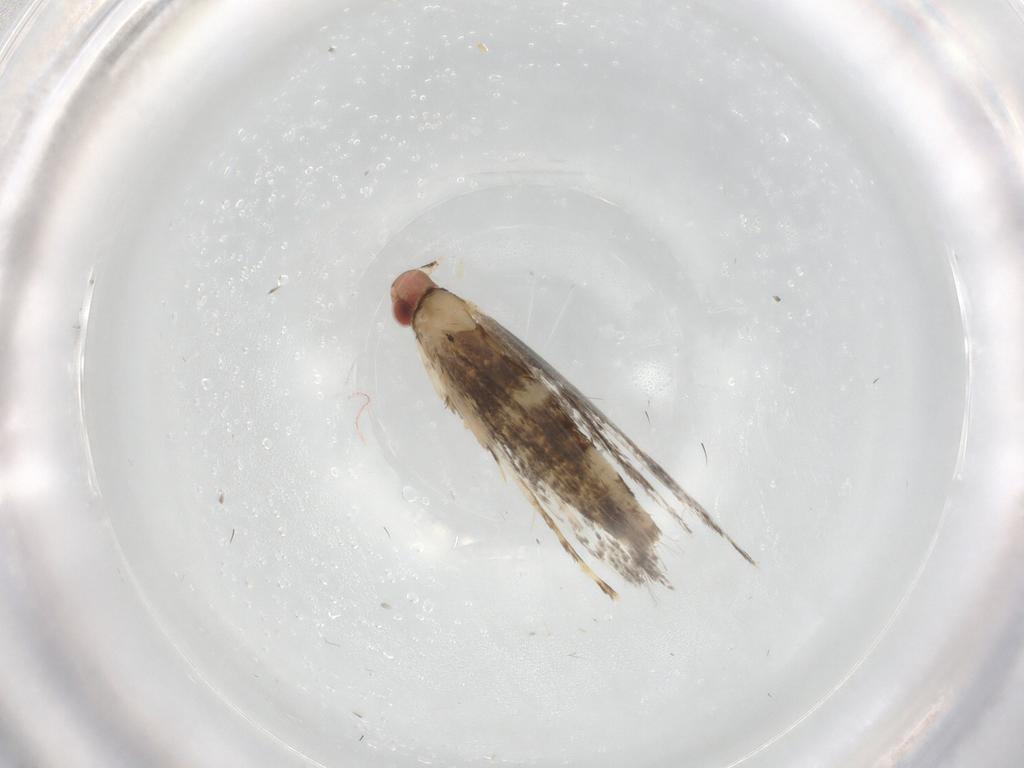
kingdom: Animalia
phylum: Arthropoda
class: Insecta
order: Lepidoptera
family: Gracillariidae
